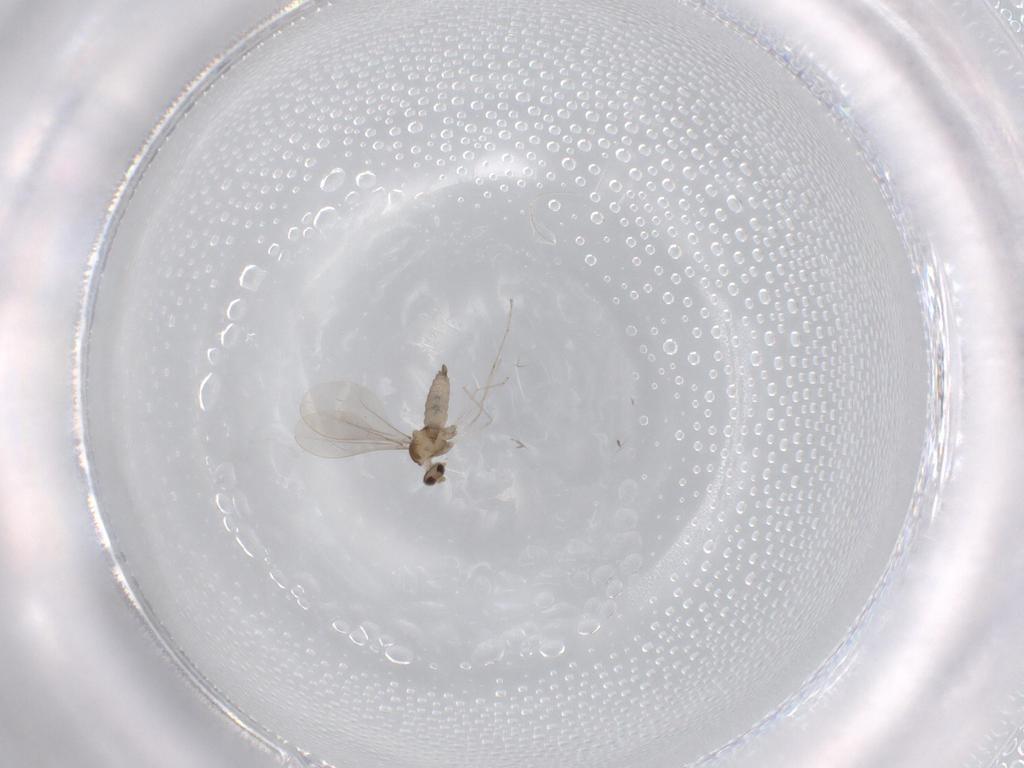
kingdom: Animalia
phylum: Arthropoda
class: Insecta
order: Diptera
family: Cecidomyiidae
